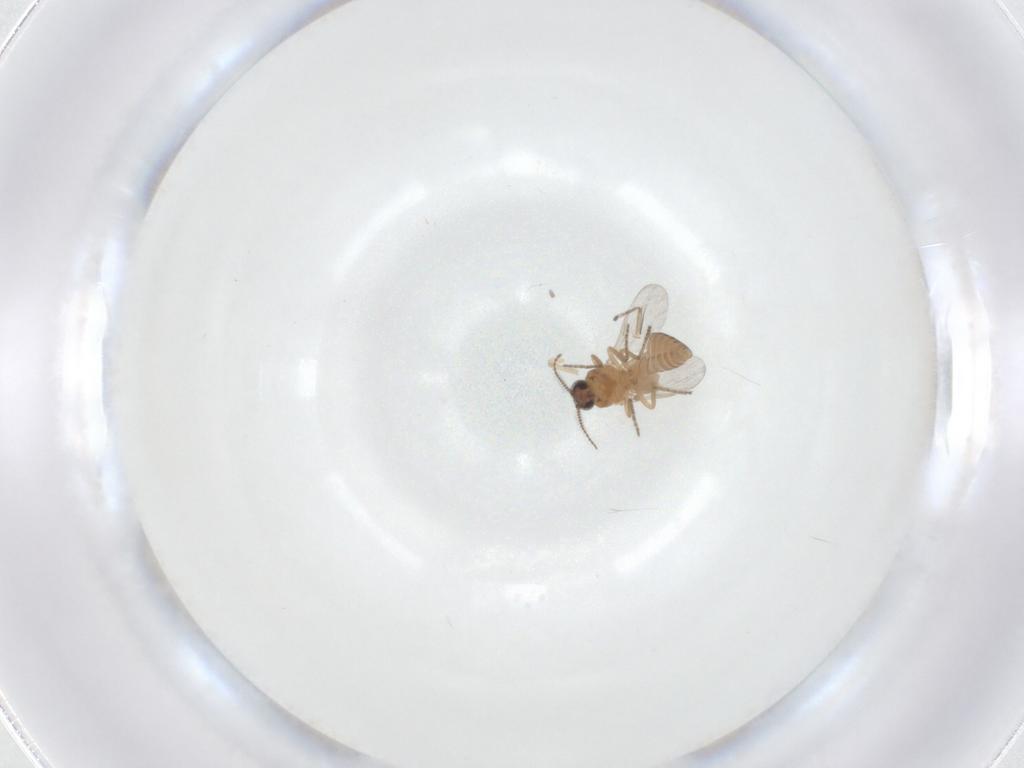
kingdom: Animalia
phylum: Arthropoda
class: Insecta
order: Diptera
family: Ceratopogonidae
